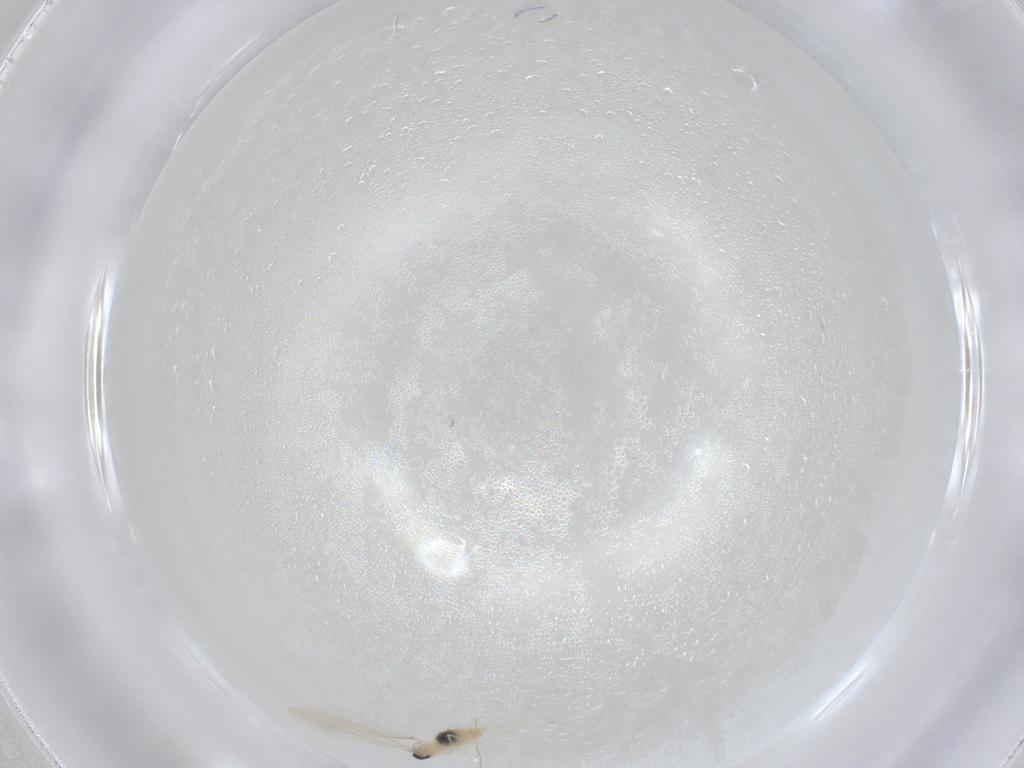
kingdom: Animalia
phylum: Arthropoda
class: Insecta
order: Diptera
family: Cecidomyiidae
